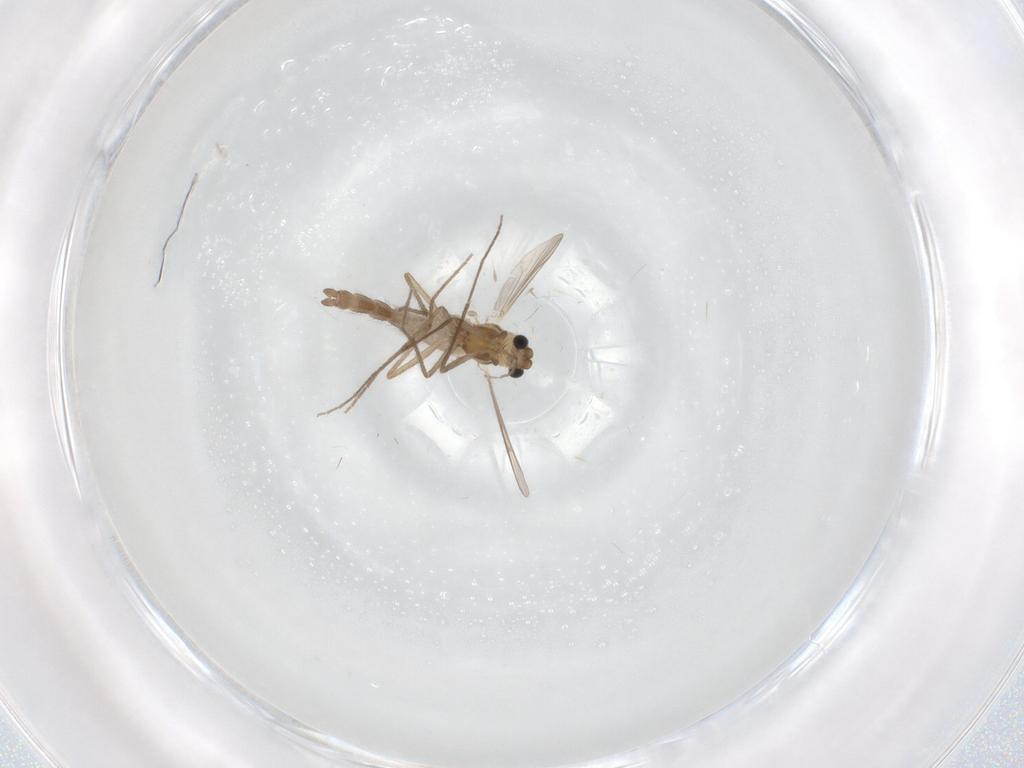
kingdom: Animalia
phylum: Arthropoda
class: Insecta
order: Diptera
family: Chironomidae
